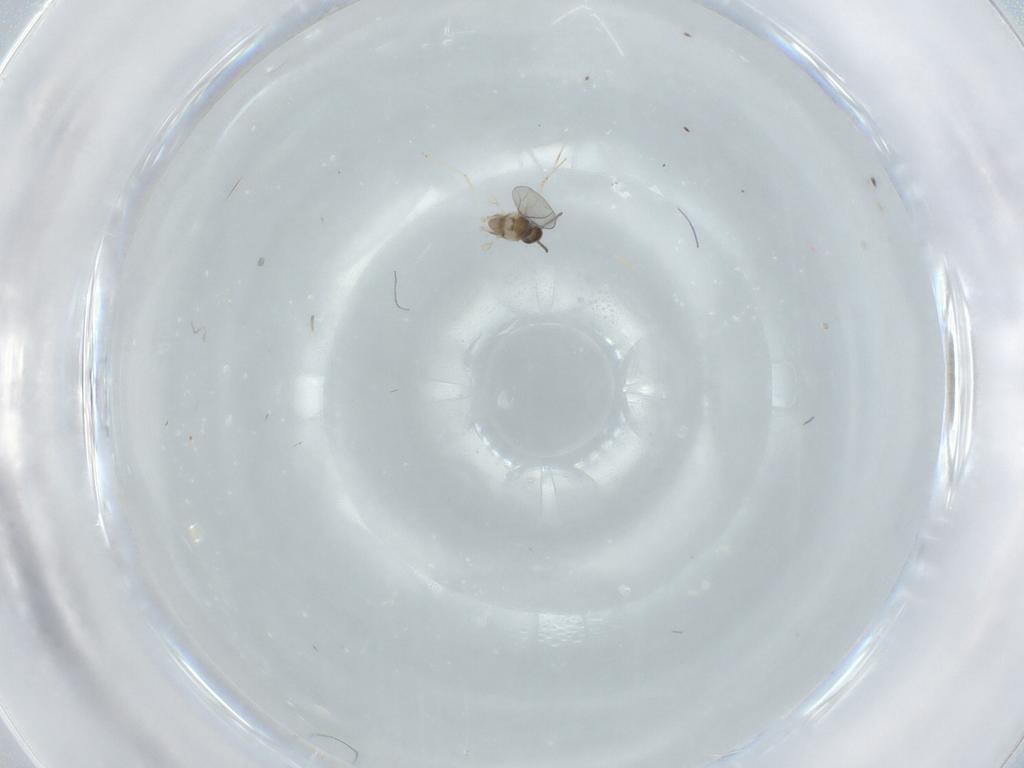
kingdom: Animalia
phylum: Arthropoda
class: Insecta
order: Diptera
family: Cecidomyiidae
